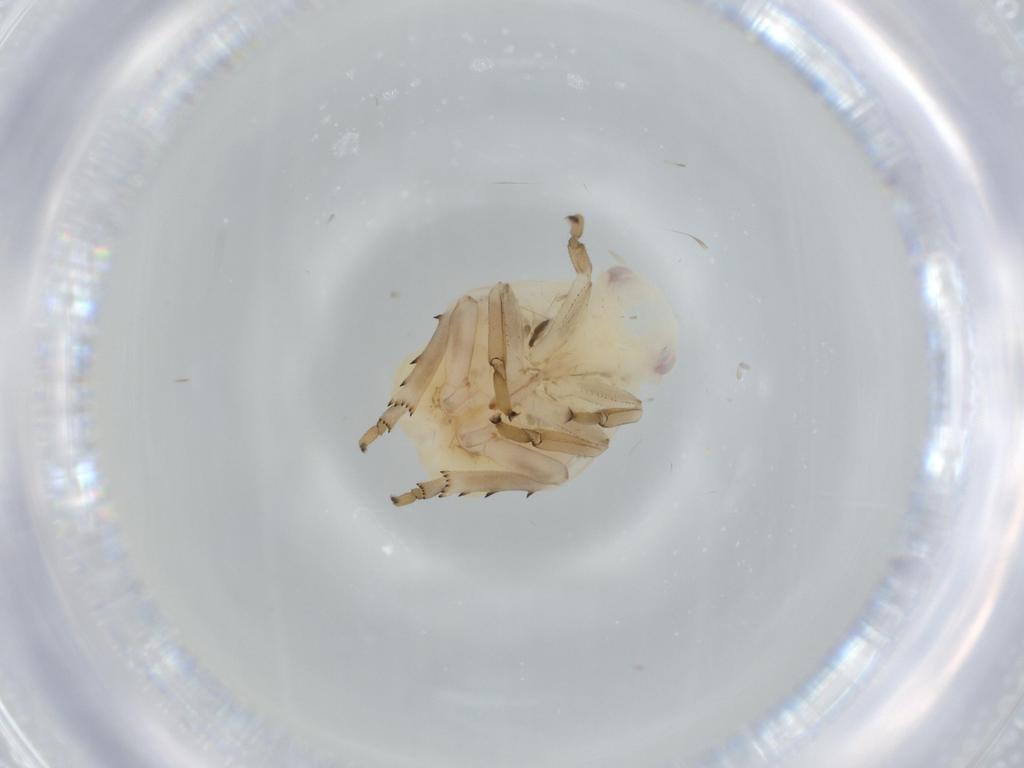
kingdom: Animalia
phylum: Arthropoda
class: Insecta
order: Hemiptera
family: Flatidae
